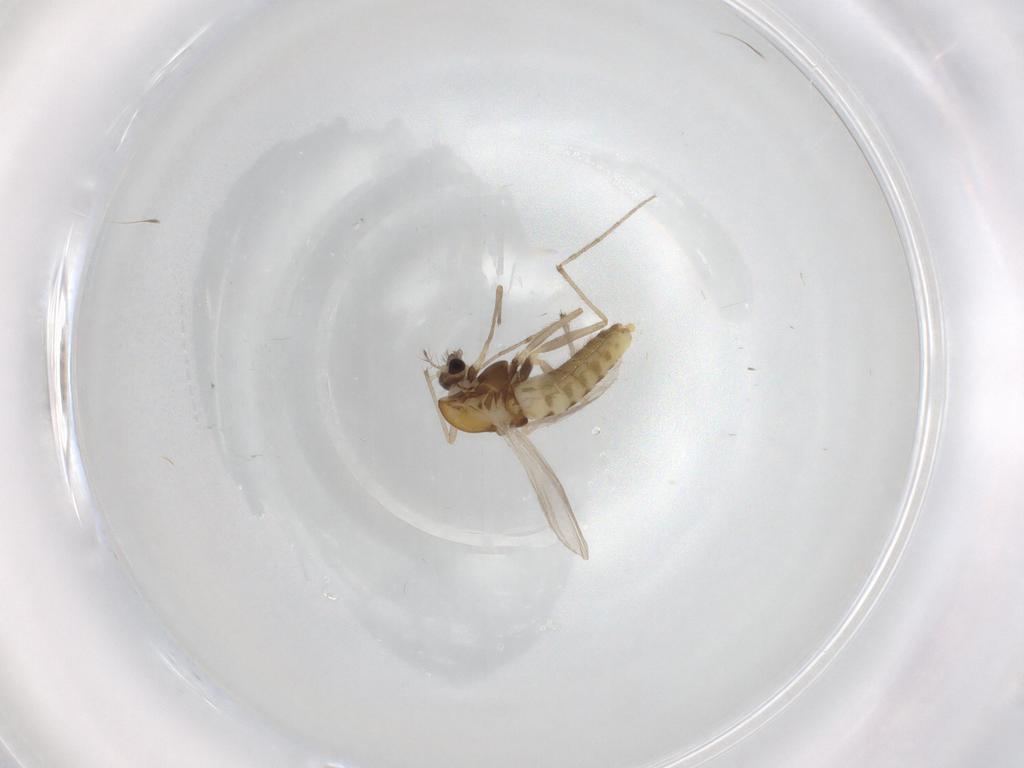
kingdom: Animalia
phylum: Arthropoda
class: Insecta
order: Diptera
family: Chironomidae
